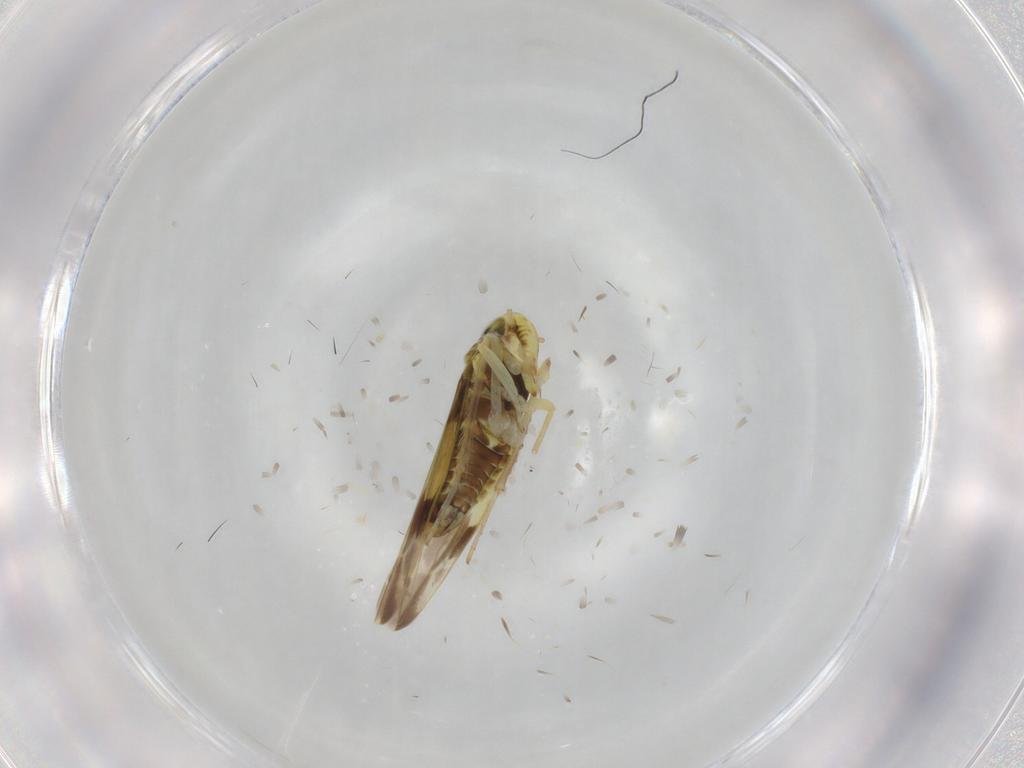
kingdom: Animalia
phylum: Arthropoda
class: Insecta
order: Hemiptera
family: Cicadellidae
